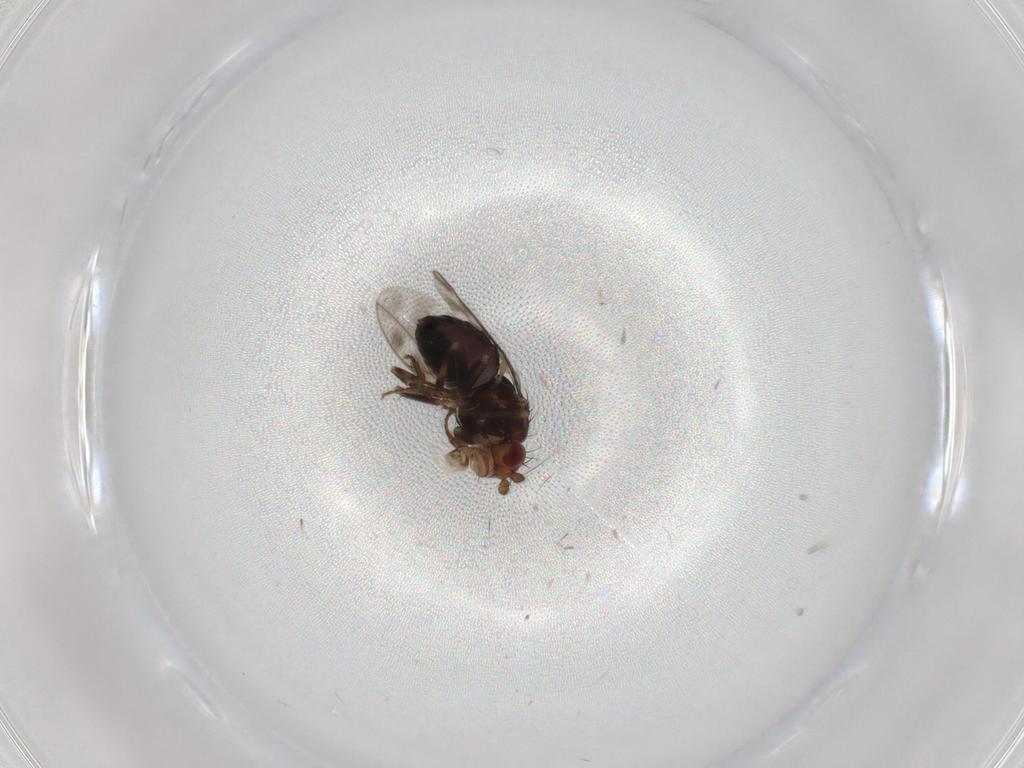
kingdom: Animalia
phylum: Arthropoda
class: Insecta
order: Diptera
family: Sphaeroceridae
